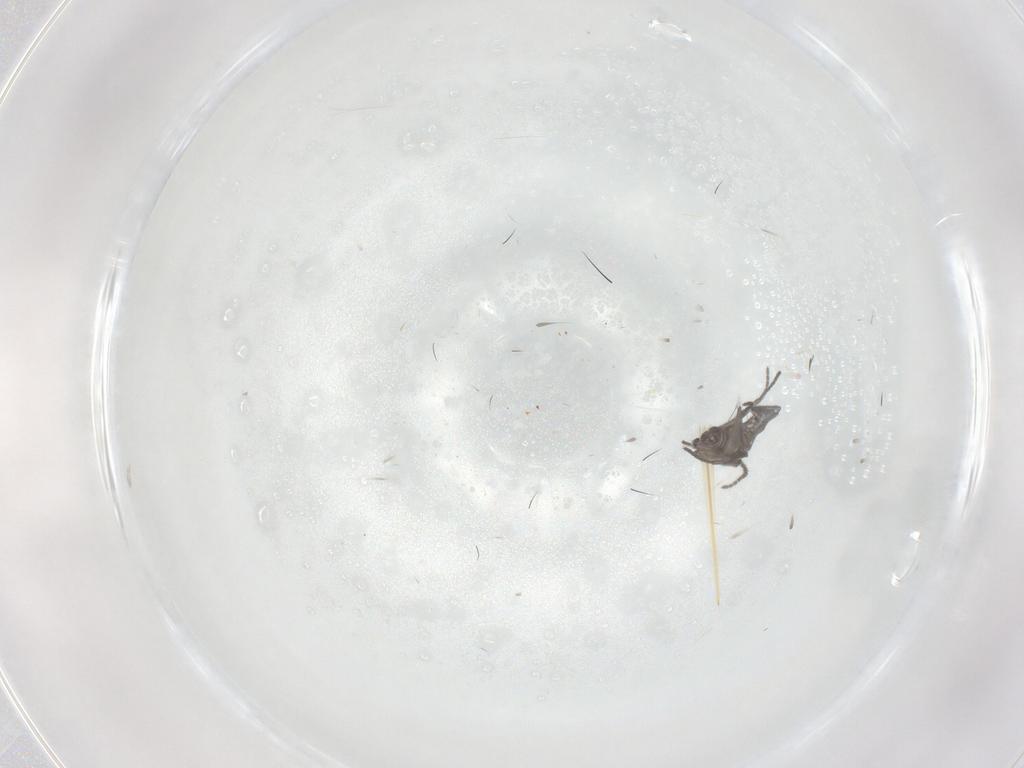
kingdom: Animalia
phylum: Arthropoda
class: Insecta
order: Diptera
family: Sciaridae
